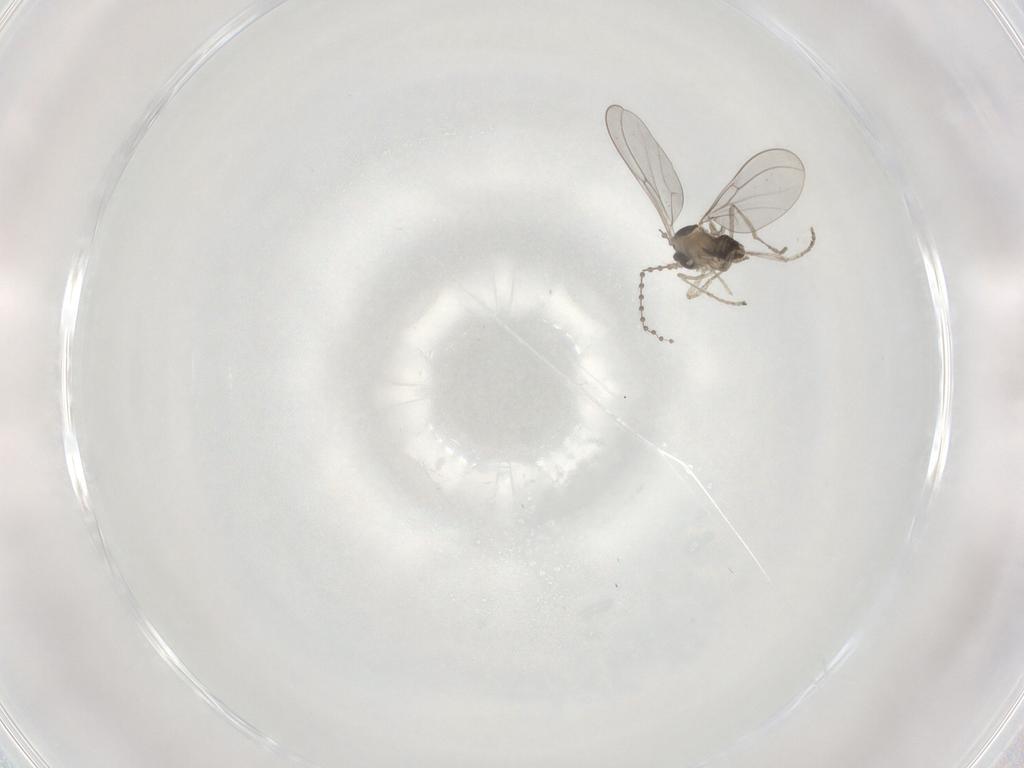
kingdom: Animalia
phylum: Arthropoda
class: Insecta
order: Diptera
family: Cecidomyiidae
